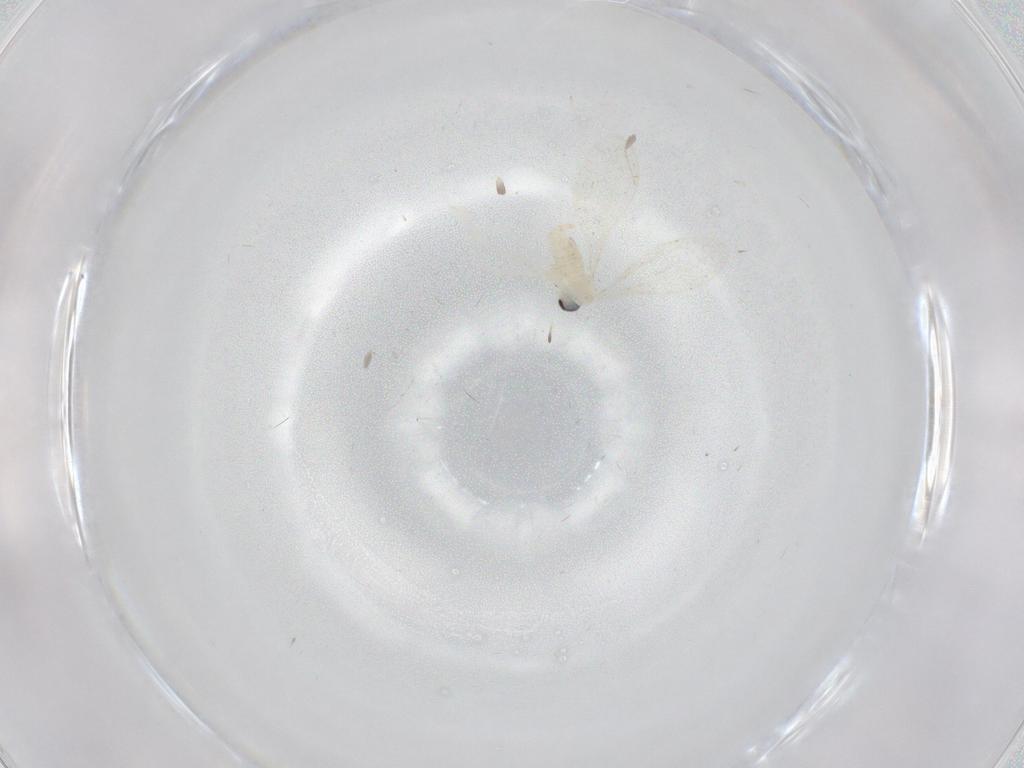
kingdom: Animalia
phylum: Arthropoda
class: Insecta
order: Diptera
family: Cecidomyiidae
